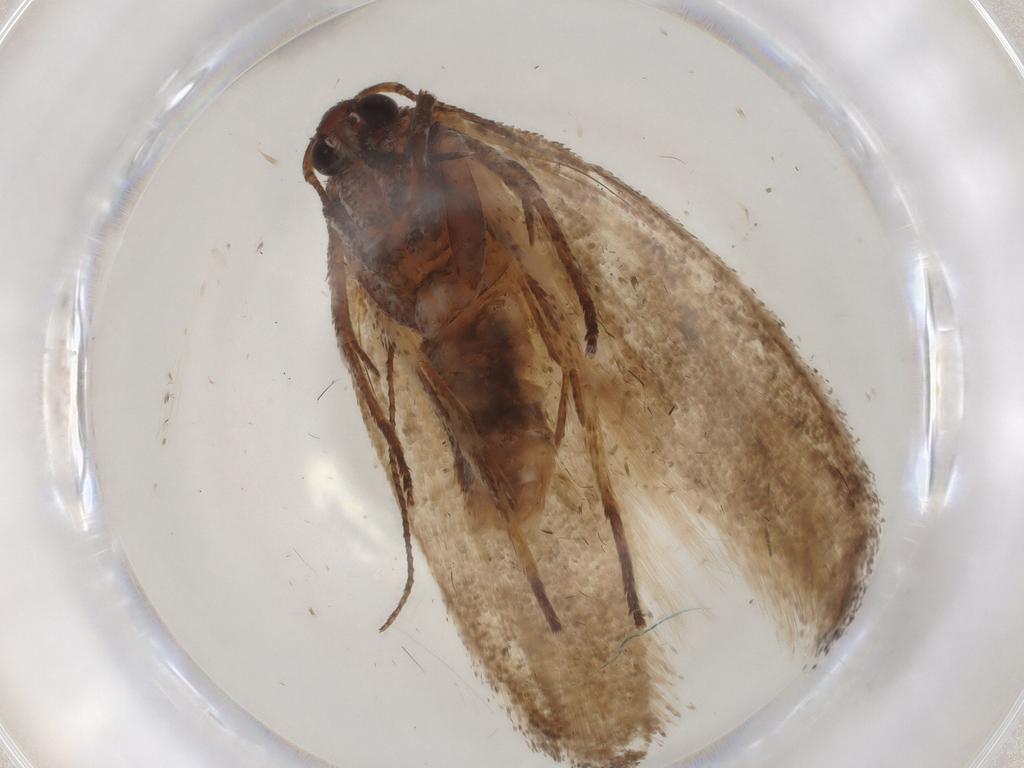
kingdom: Animalia
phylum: Arthropoda
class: Insecta
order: Lepidoptera
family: Cosmopterigidae
